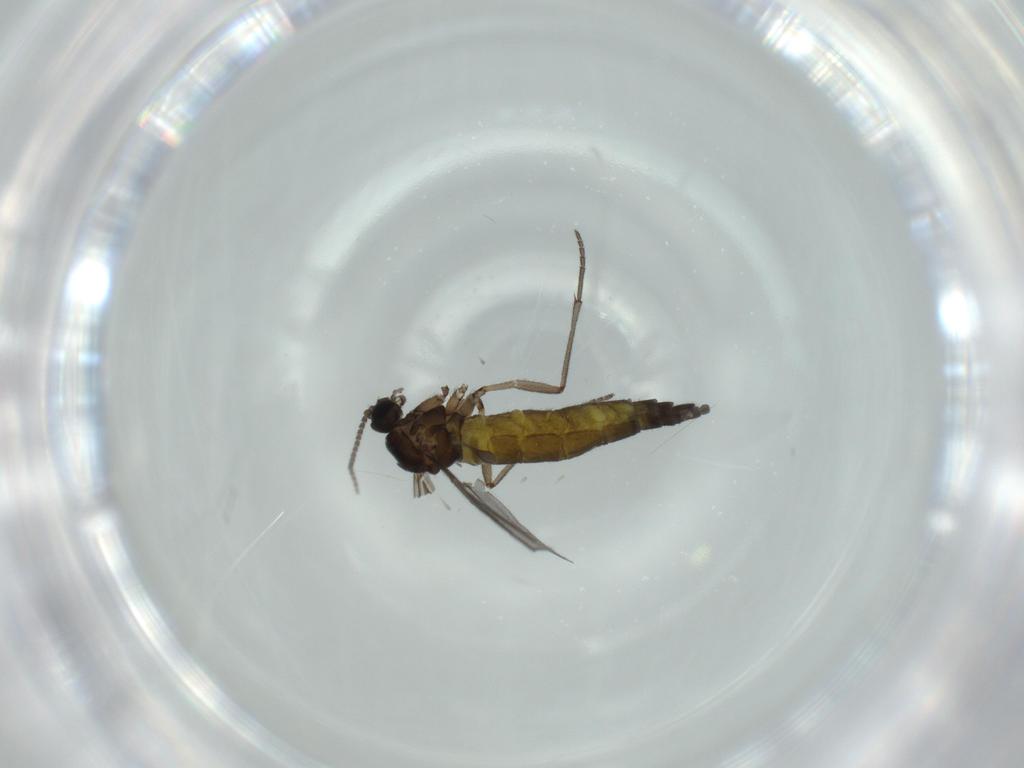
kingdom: Animalia
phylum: Arthropoda
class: Insecta
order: Diptera
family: Sciaridae
